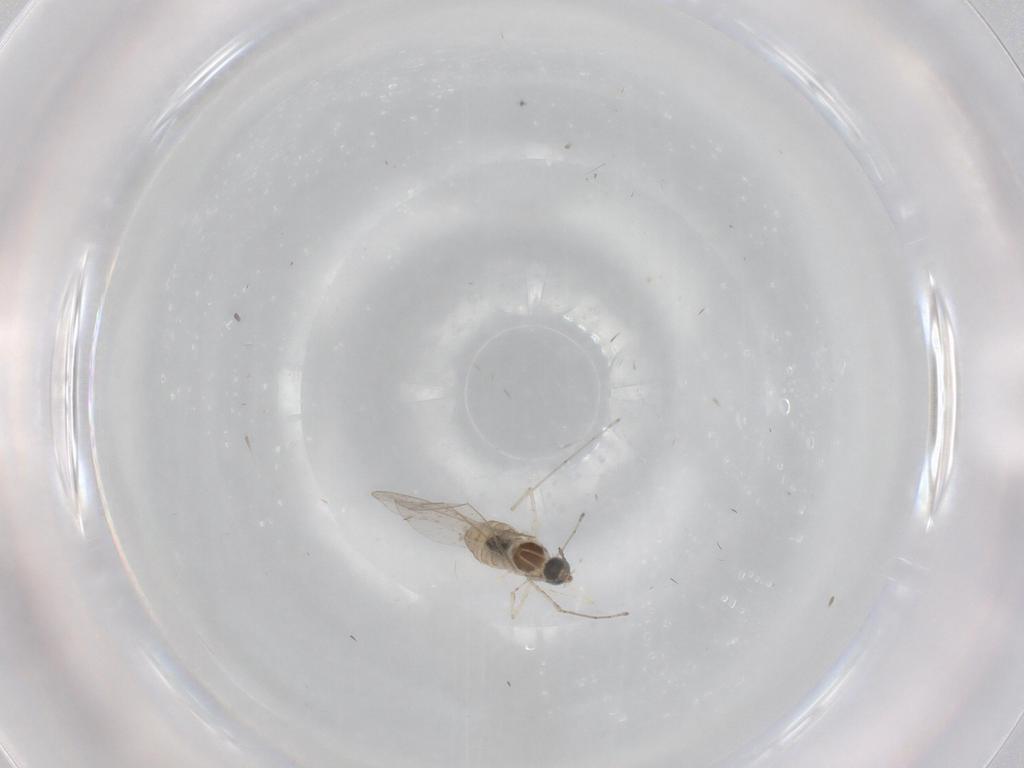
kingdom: Animalia
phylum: Arthropoda
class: Insecta
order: Diptera
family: Cecidomyiidae
